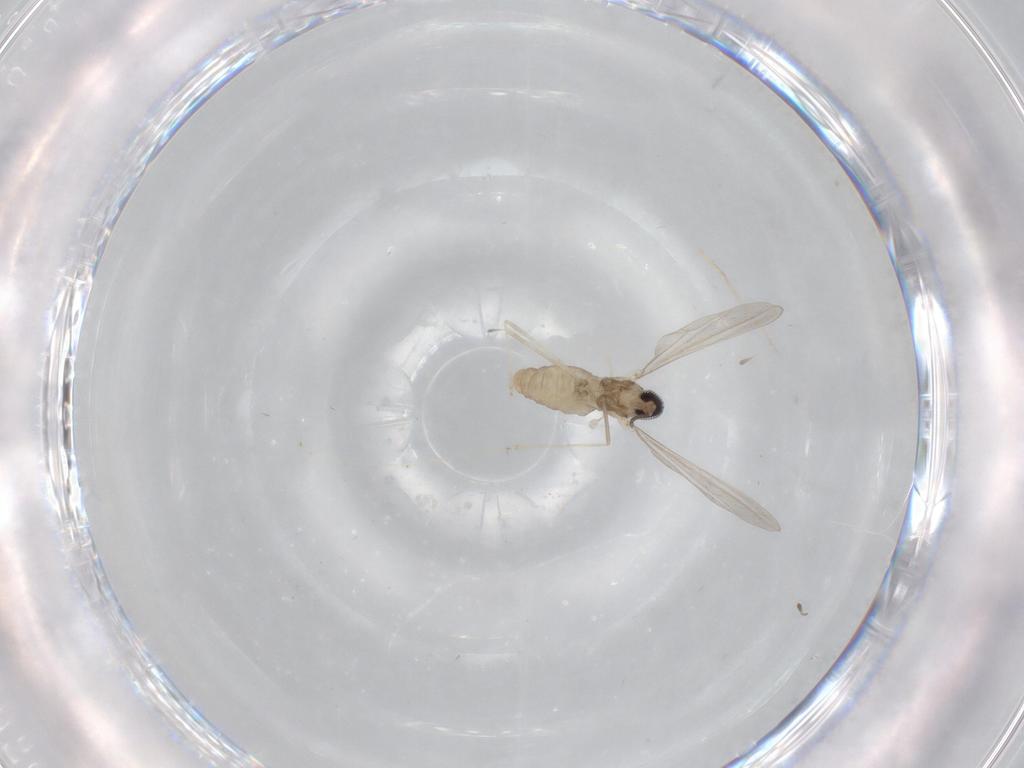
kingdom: Animalia
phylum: Arthropoda
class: Insecta
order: Diptera
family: Cecidomyiidae
